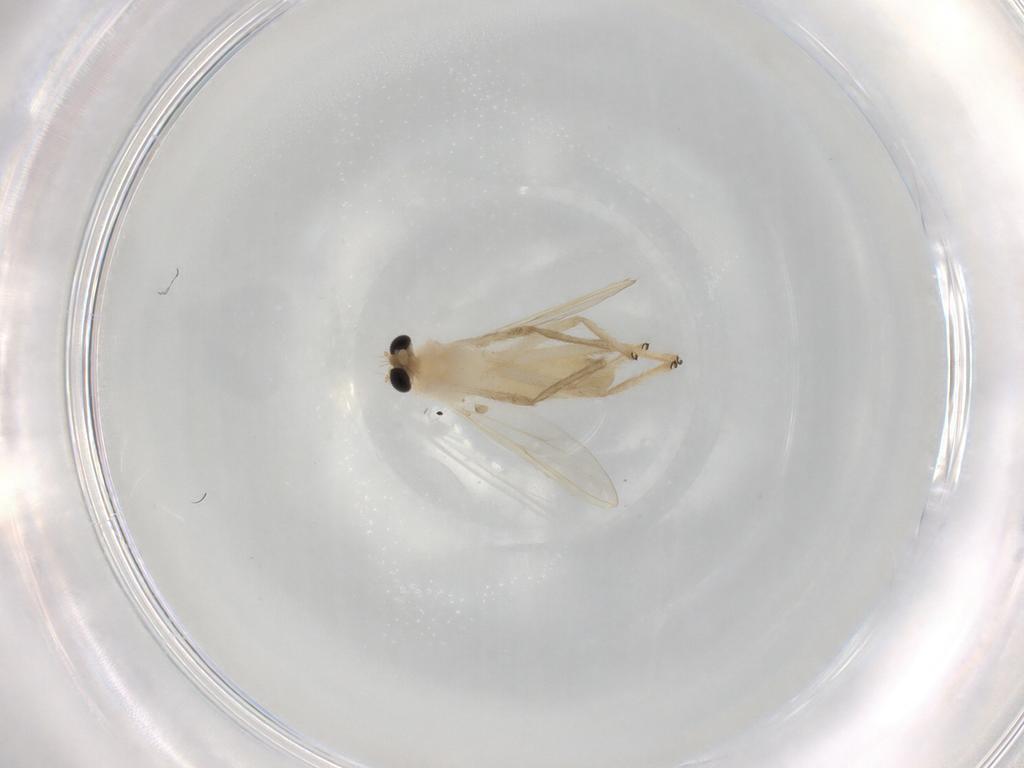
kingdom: Animalia
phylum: Arthropoda
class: Insecta
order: Diptera
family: Chironomidae
